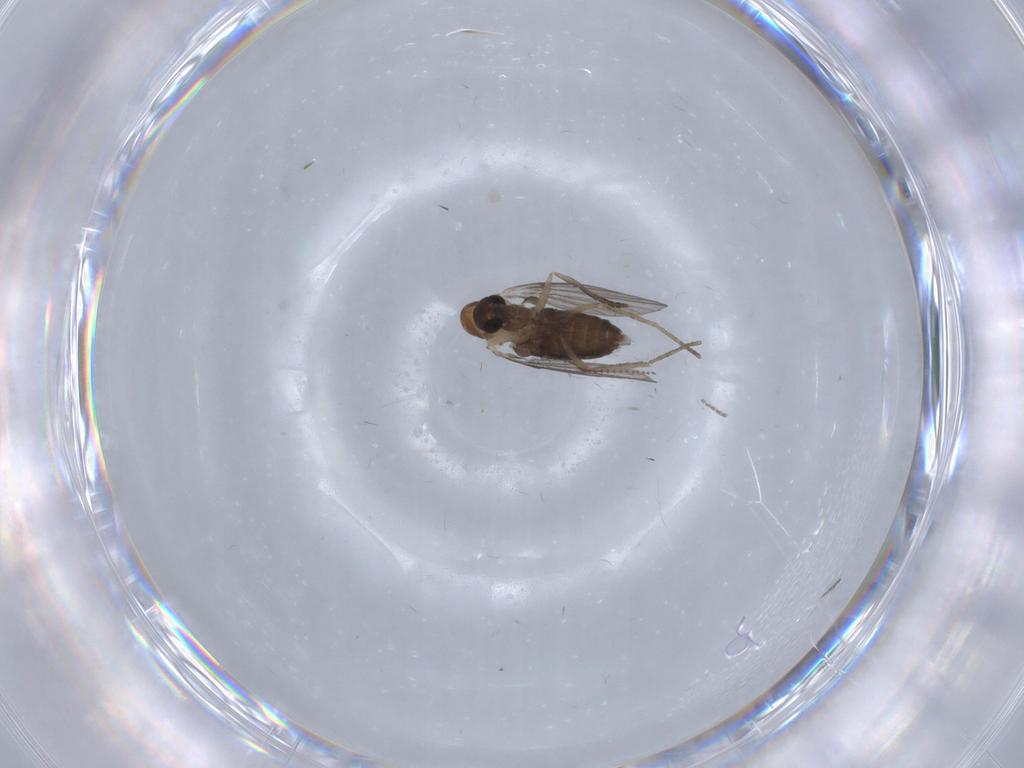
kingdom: Animalia
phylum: Arthropoda
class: Insecta
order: Diptera
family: Cecidomyiidae
